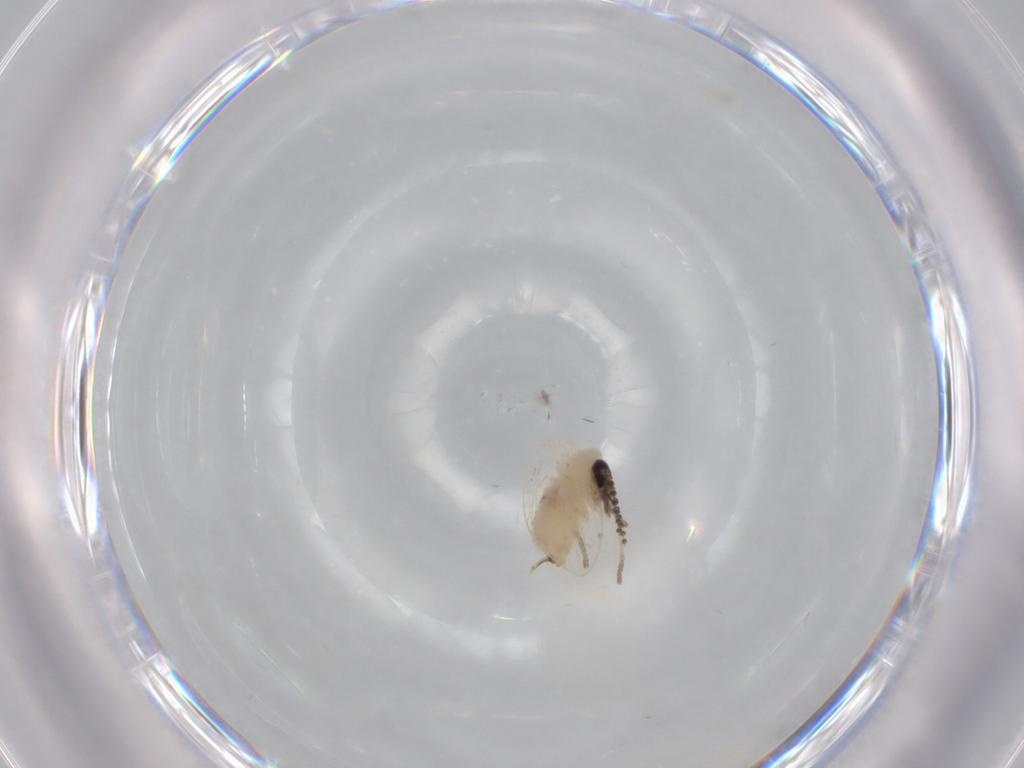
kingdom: Animalia
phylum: Arthropoda
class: Insecta
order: Diptera
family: Psychodidae
